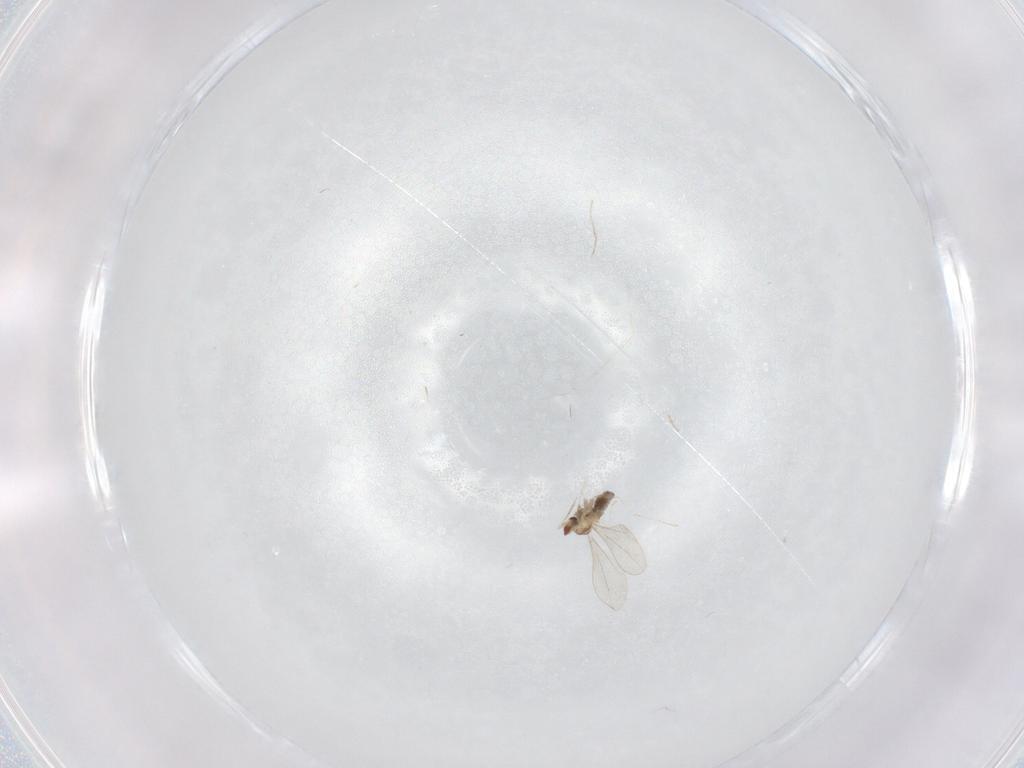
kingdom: Animalia
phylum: Arthropoda
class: Insecta
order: Diptera
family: Cecidomyiidae
